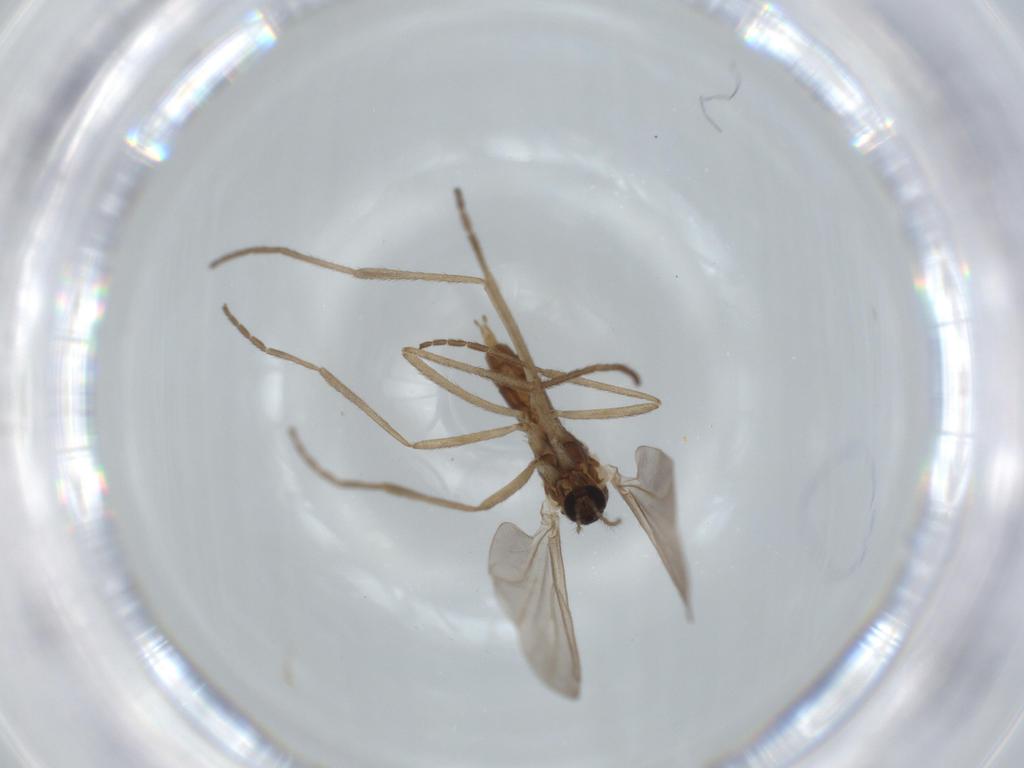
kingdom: Animalia
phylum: Arthropoda
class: Insecta
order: Diptera
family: Cecidomyiidae
